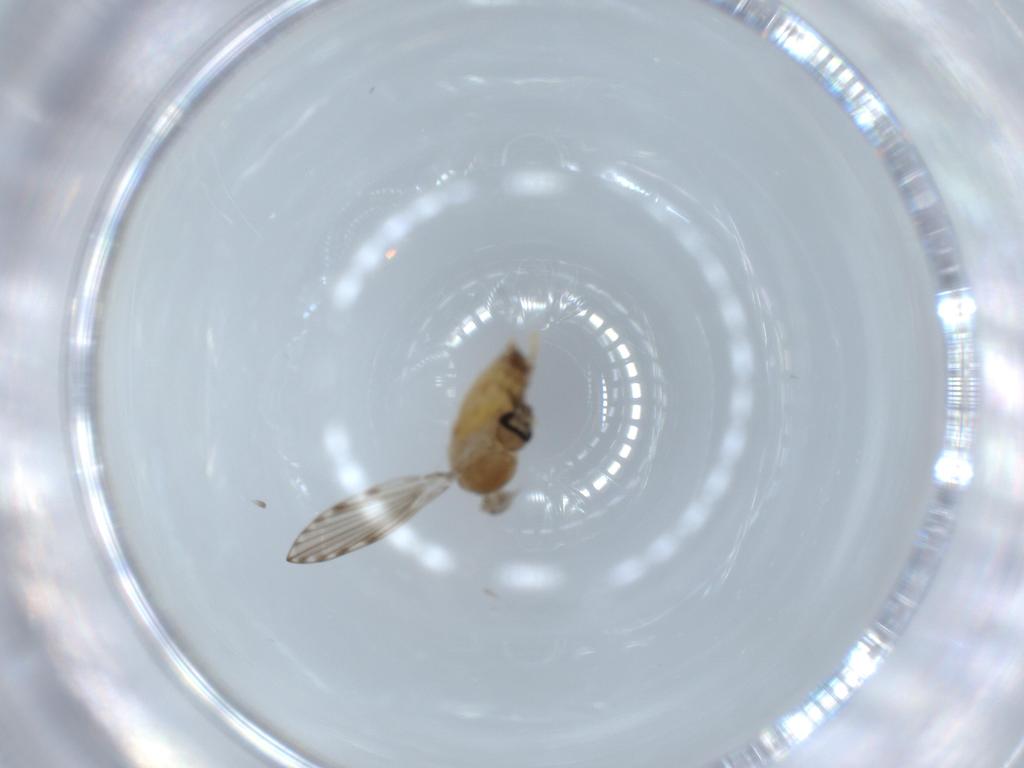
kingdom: Animalia
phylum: Arthropoda
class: Insecta
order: Diptera
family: Psychodidae
